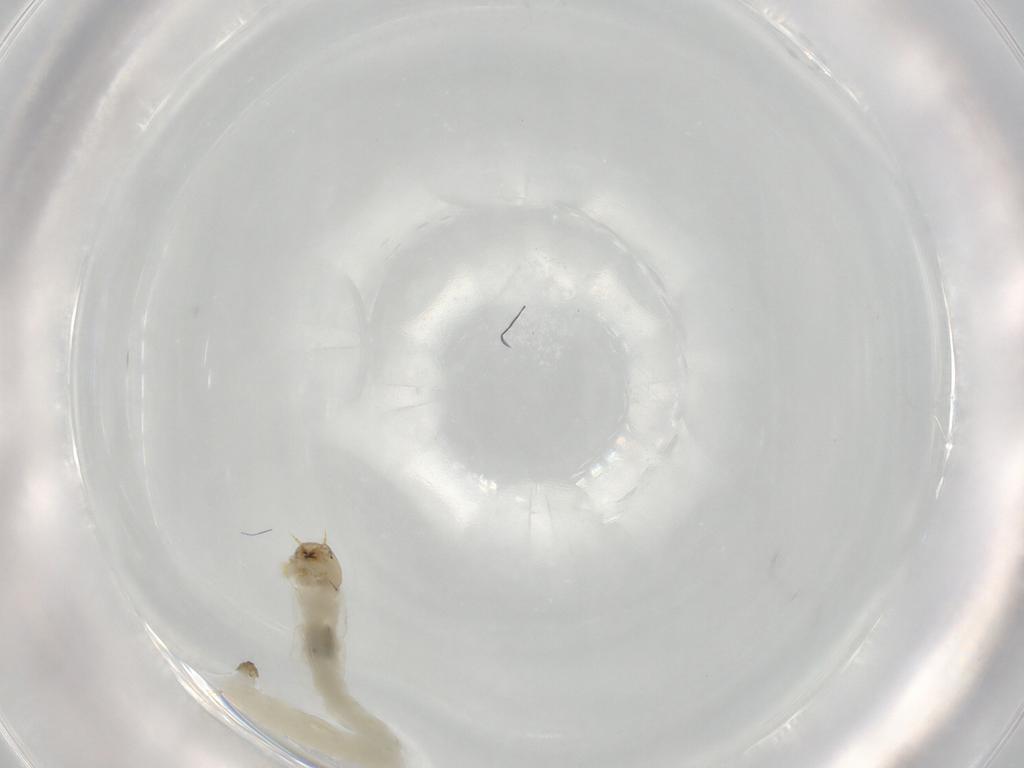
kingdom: Animalia
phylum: Arthropoda
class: Insecta
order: Diptera
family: Chironomidae
